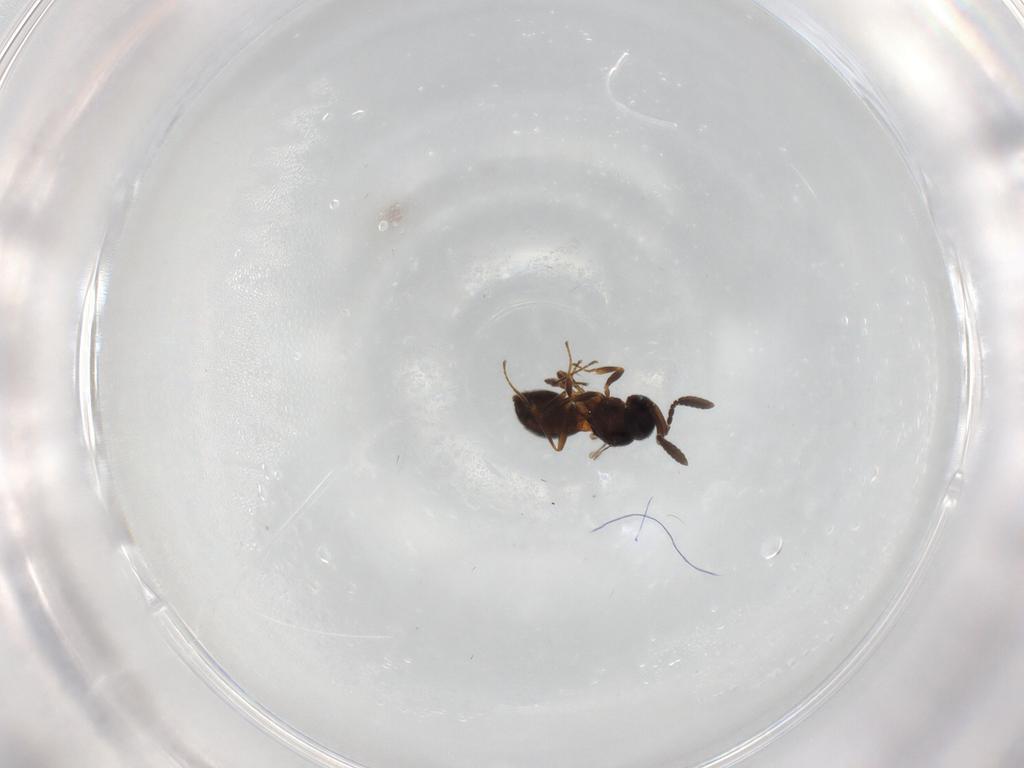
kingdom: Animalia
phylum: Arthropoda
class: Insecta
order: Hymenoptera
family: Scelionidae
